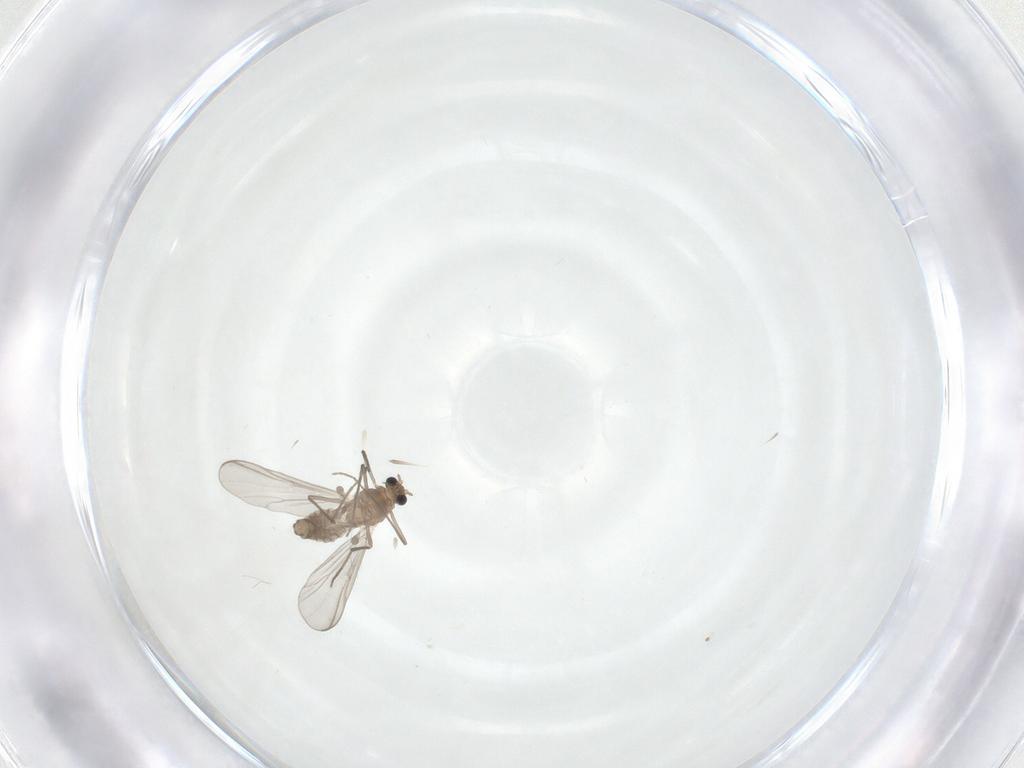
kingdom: Animalia
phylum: Arthropoda
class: Insecta
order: Diptera
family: Chironomidae
